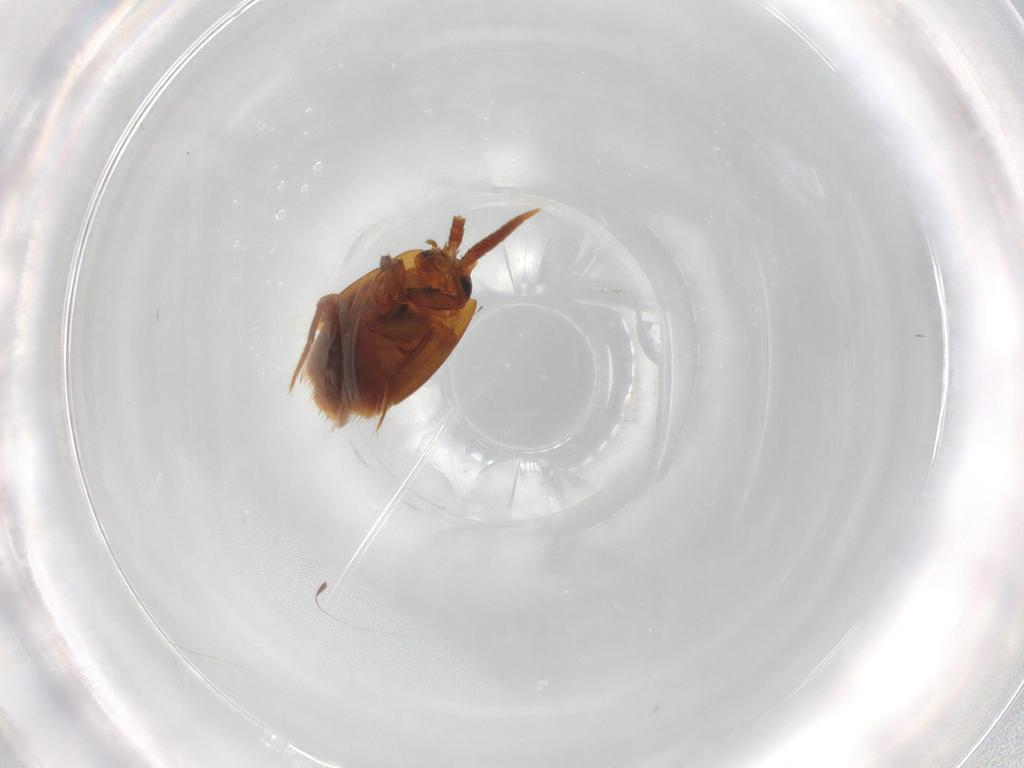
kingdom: Animalia
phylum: Arthropoda
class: Insecta
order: Coleoptera
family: Staphylinidae
